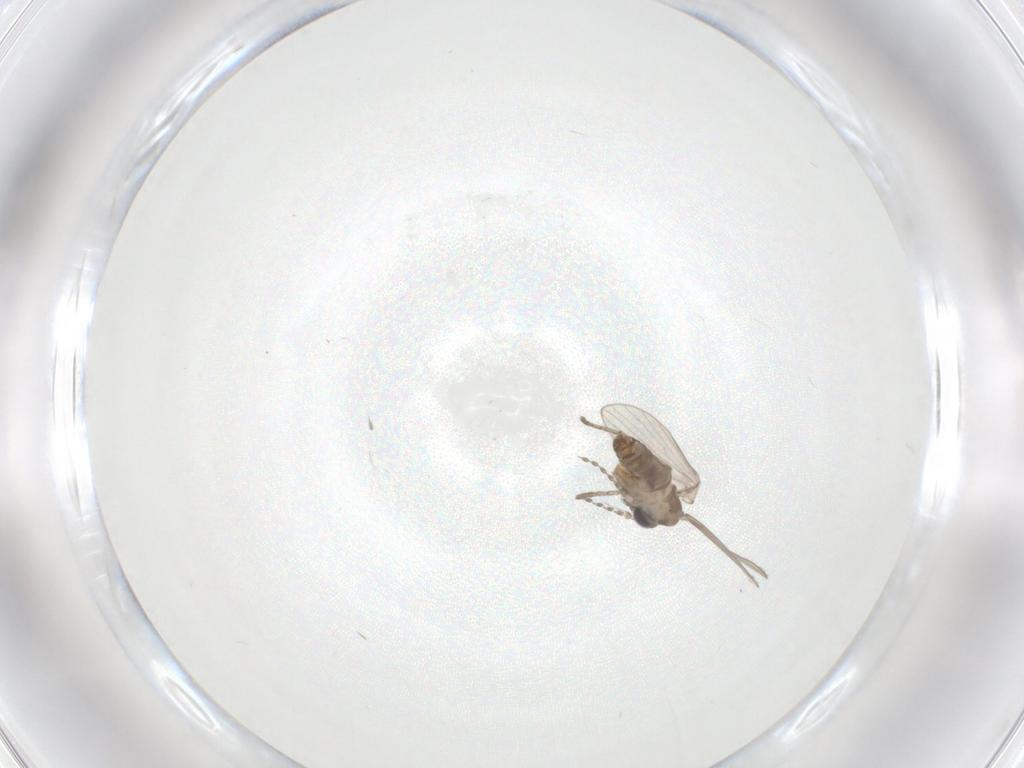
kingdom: Animalia
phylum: Arthropoda
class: Insecta
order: Diptera
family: Psychodidae
